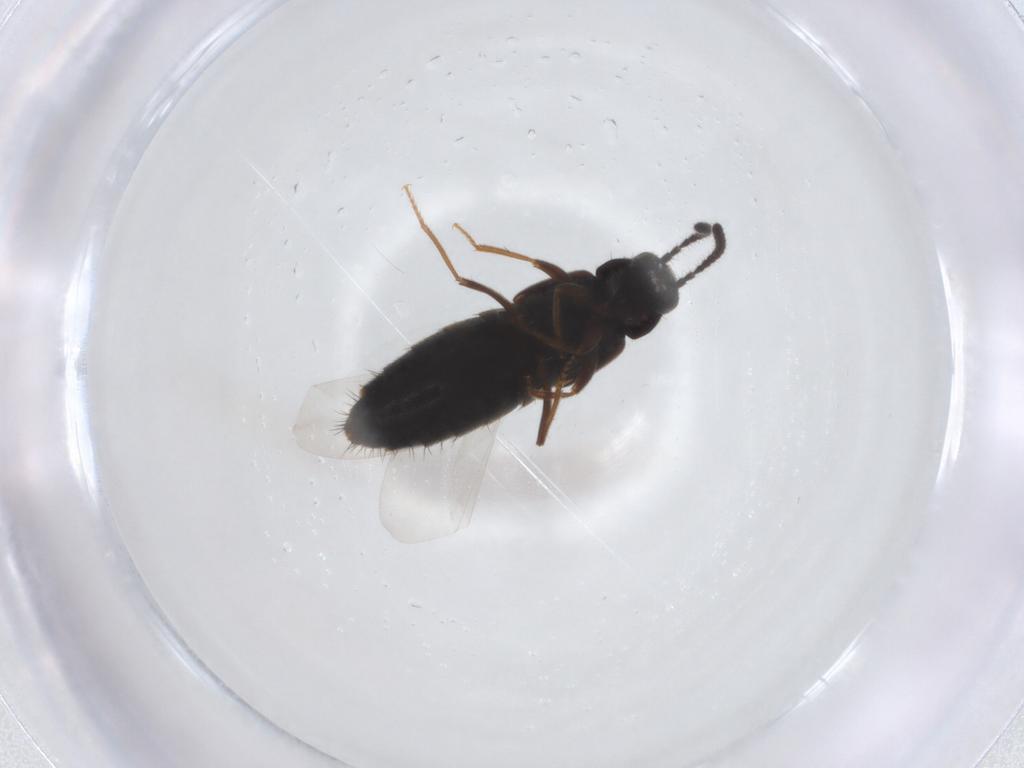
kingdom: Animalia
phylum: Arthropoda
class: Insecta
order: Coleoptera
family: Staphylinidae
